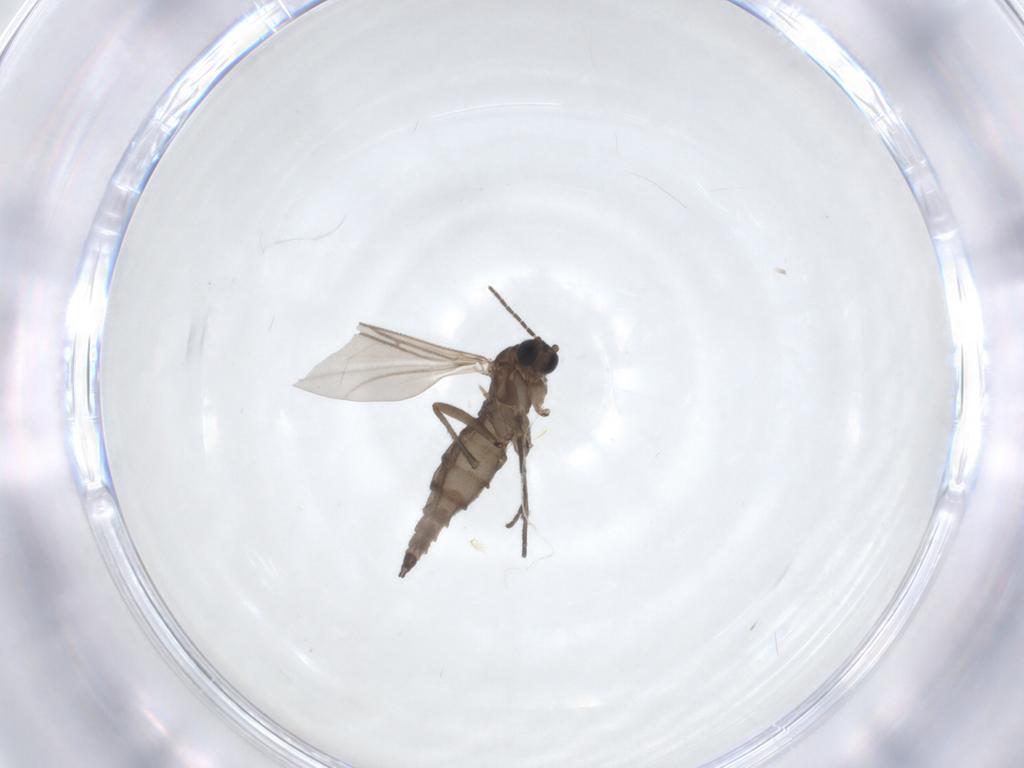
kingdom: Animalia
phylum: Arthropoda
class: Insecta
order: Diptera
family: Sciaridae
